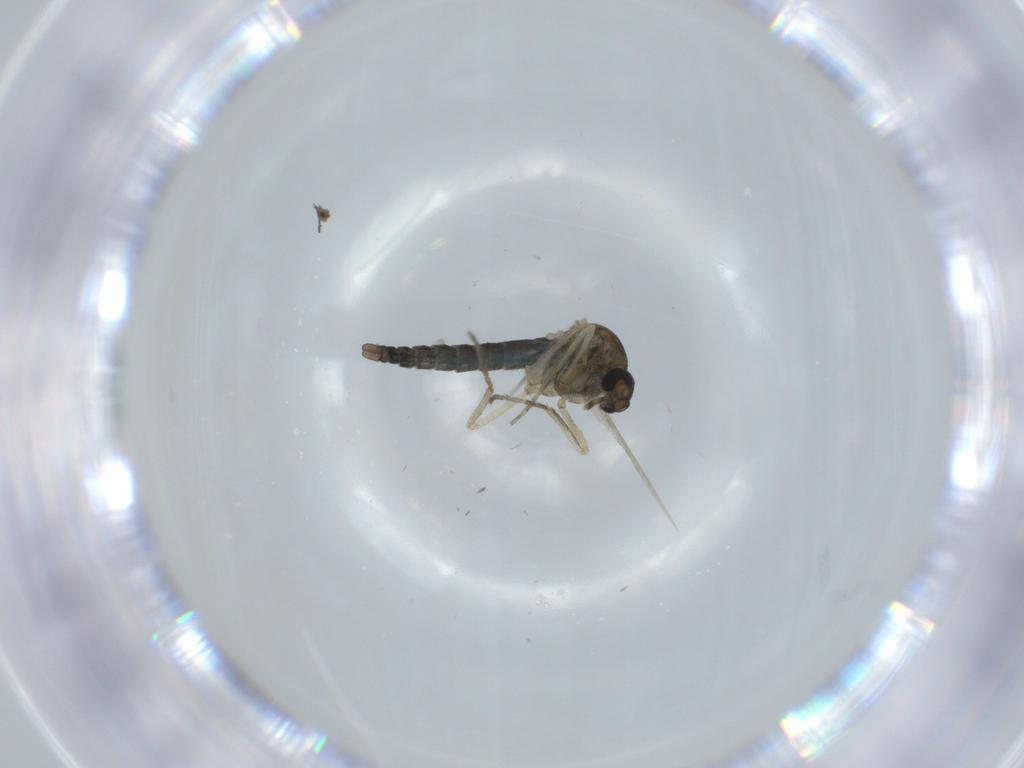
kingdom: Animalia
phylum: Arthropoda
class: Insecta
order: Diptera
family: Ceratopogonidae
